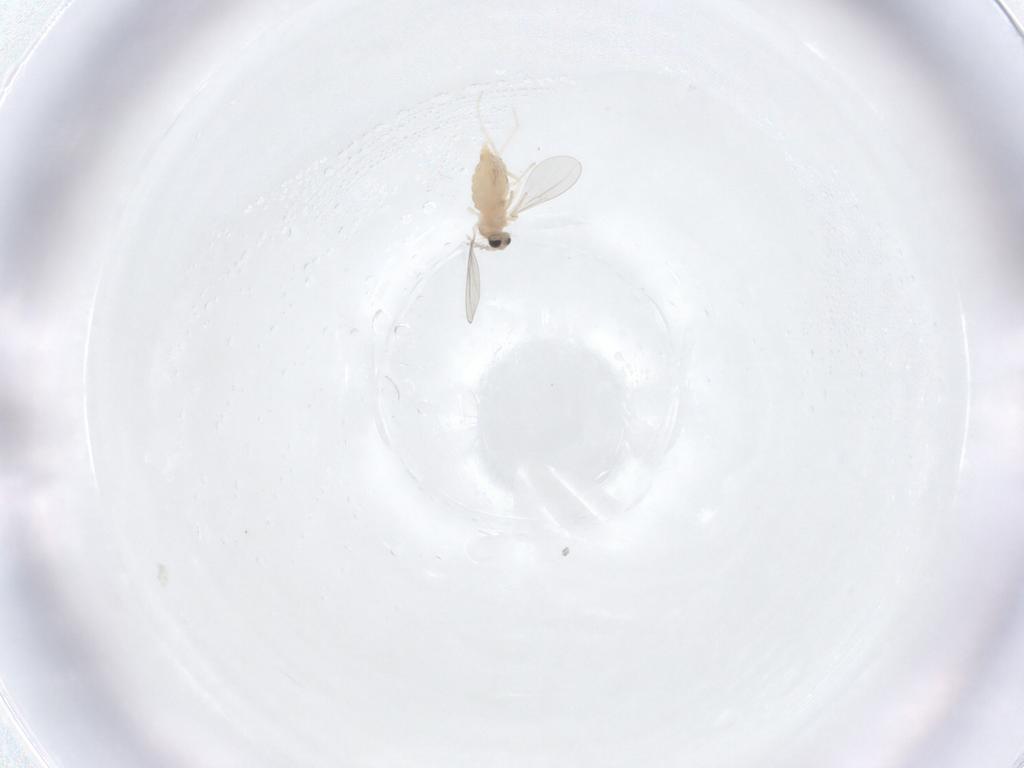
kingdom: Animalia
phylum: Arthropoda
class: Insecta
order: Diptera
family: Cecidomyiidae
